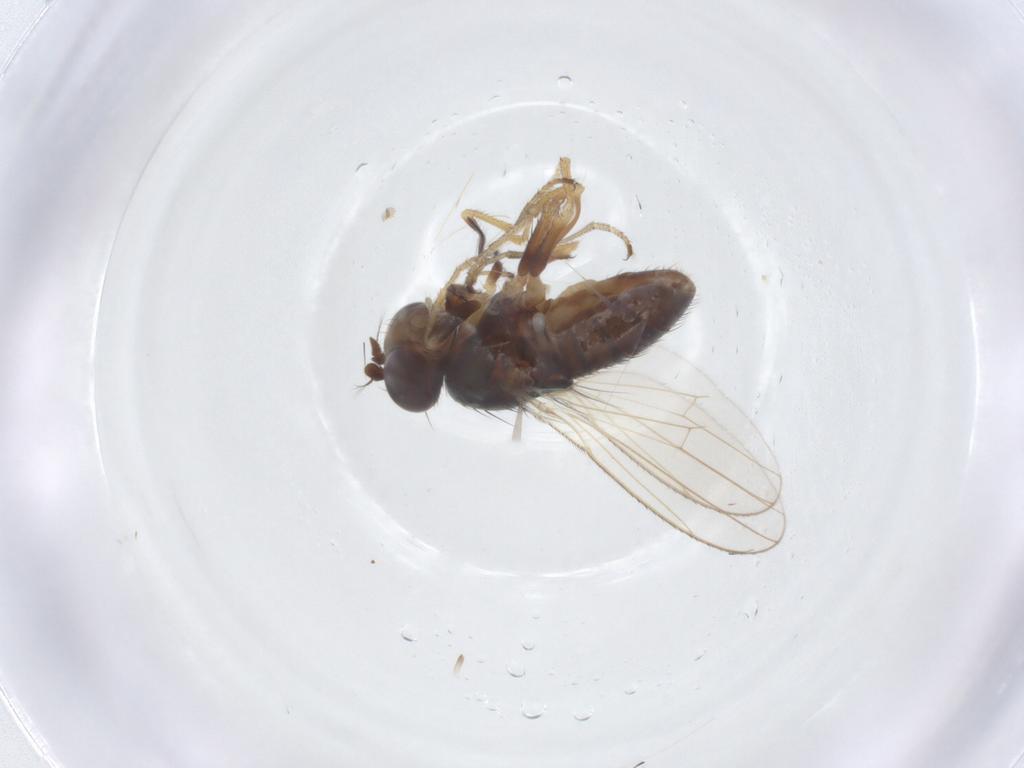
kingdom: Animalia
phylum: Arthropoda
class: Insecta
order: Diptera
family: Ephydridae
